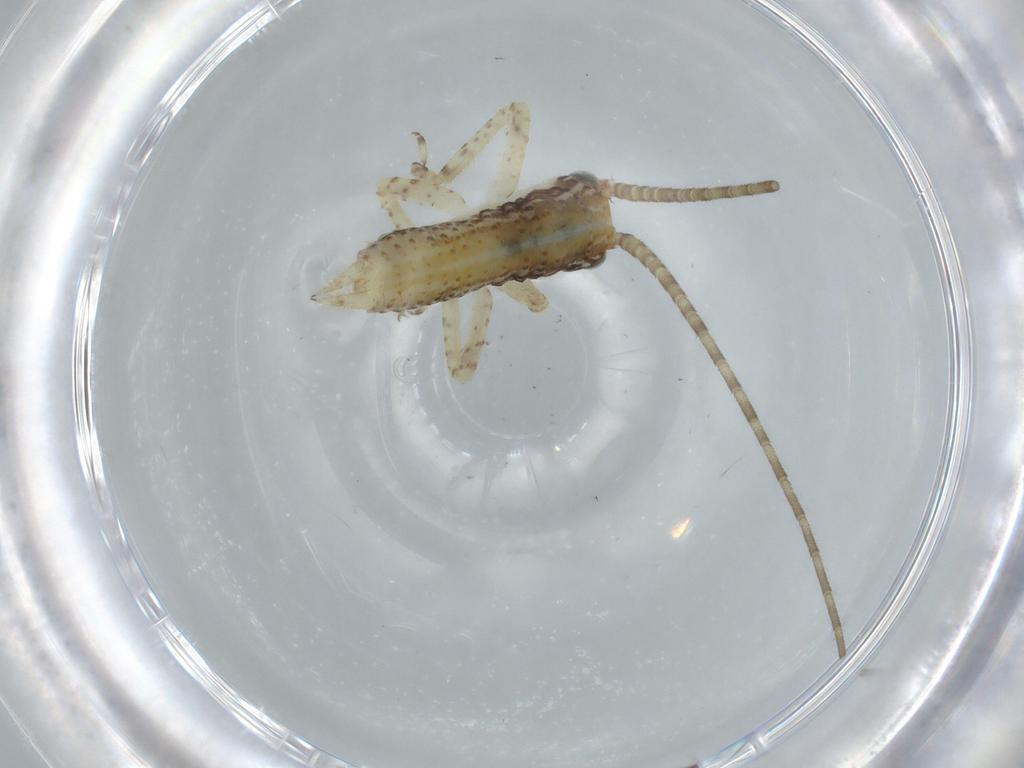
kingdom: Animalia
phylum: Arthropoda
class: Insecta
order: Orthoptera
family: Gryllidae
